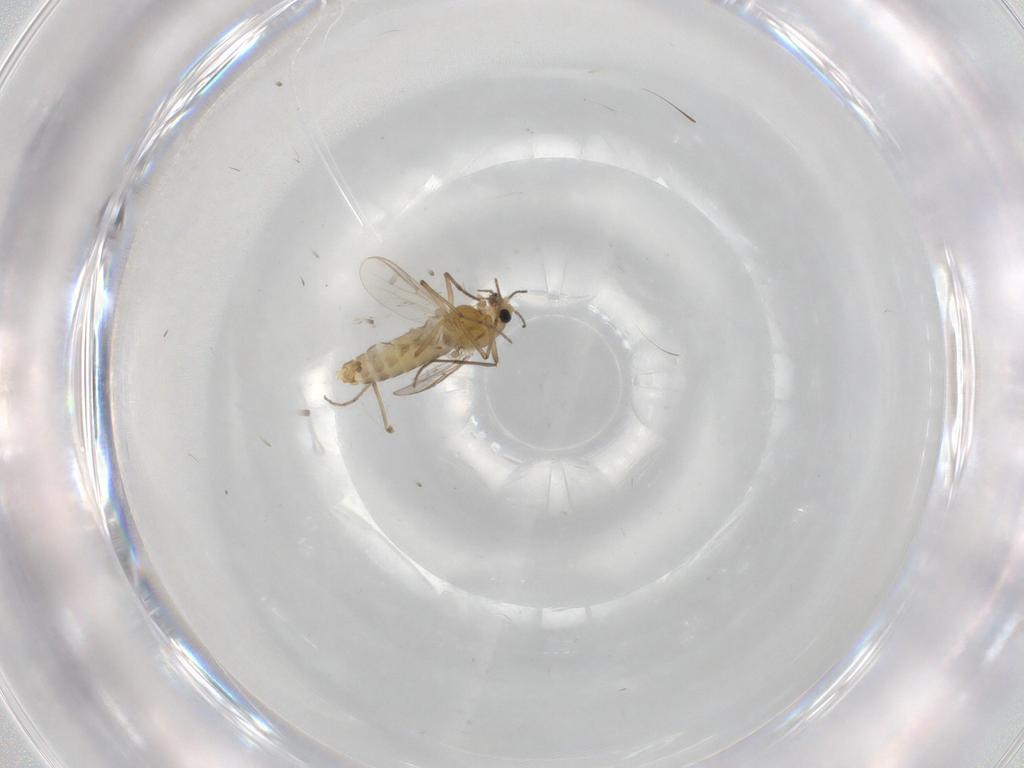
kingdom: Animalia
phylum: Arthropoda
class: Insecta
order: Diptera
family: Chironomidae
